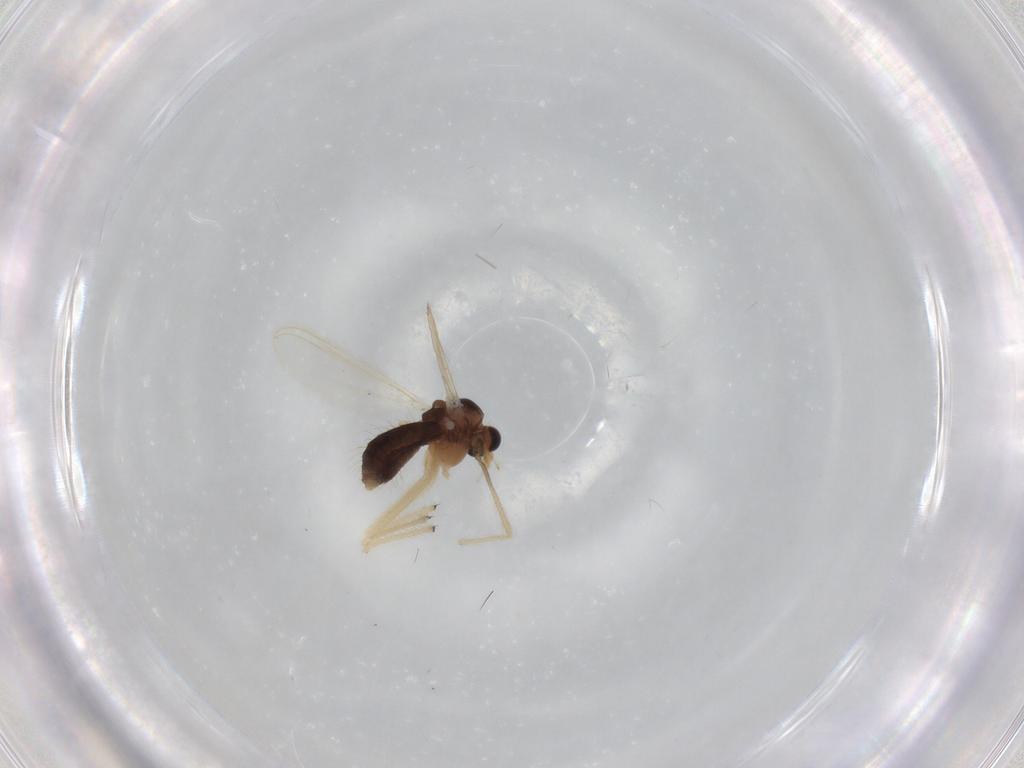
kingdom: Animalia
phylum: Arthropoda
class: Insecta
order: Diptera
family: Chironomidae
